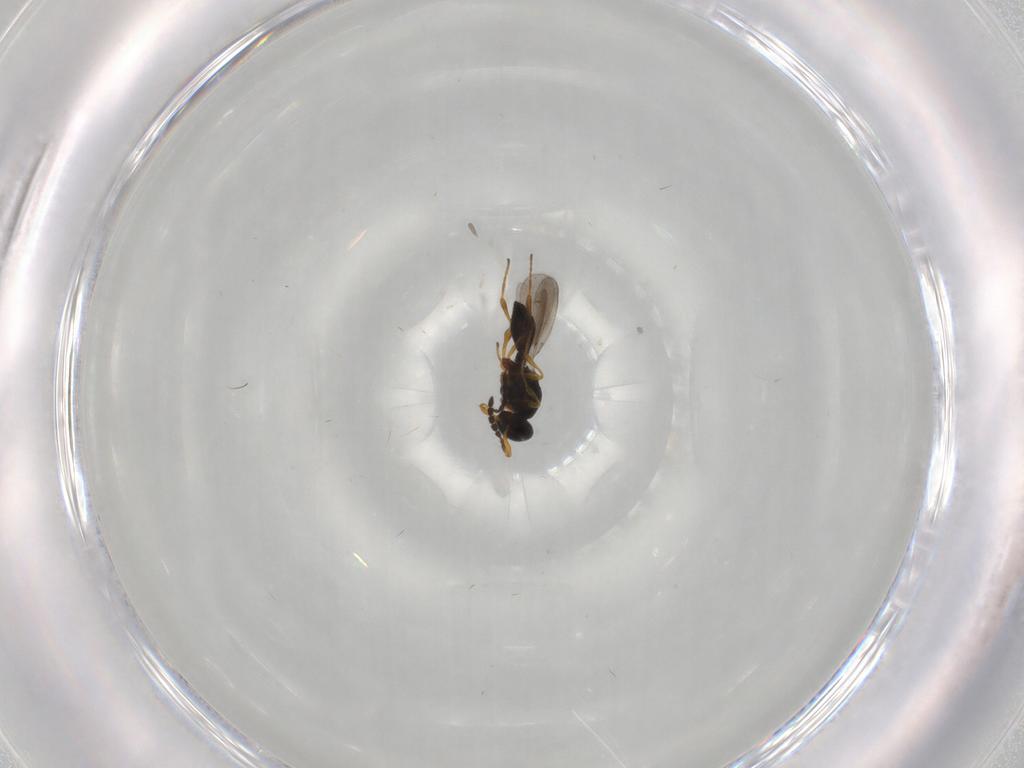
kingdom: Animalia
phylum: Arthropoda
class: Insecta
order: Hymenoptera
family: Platygastridae
